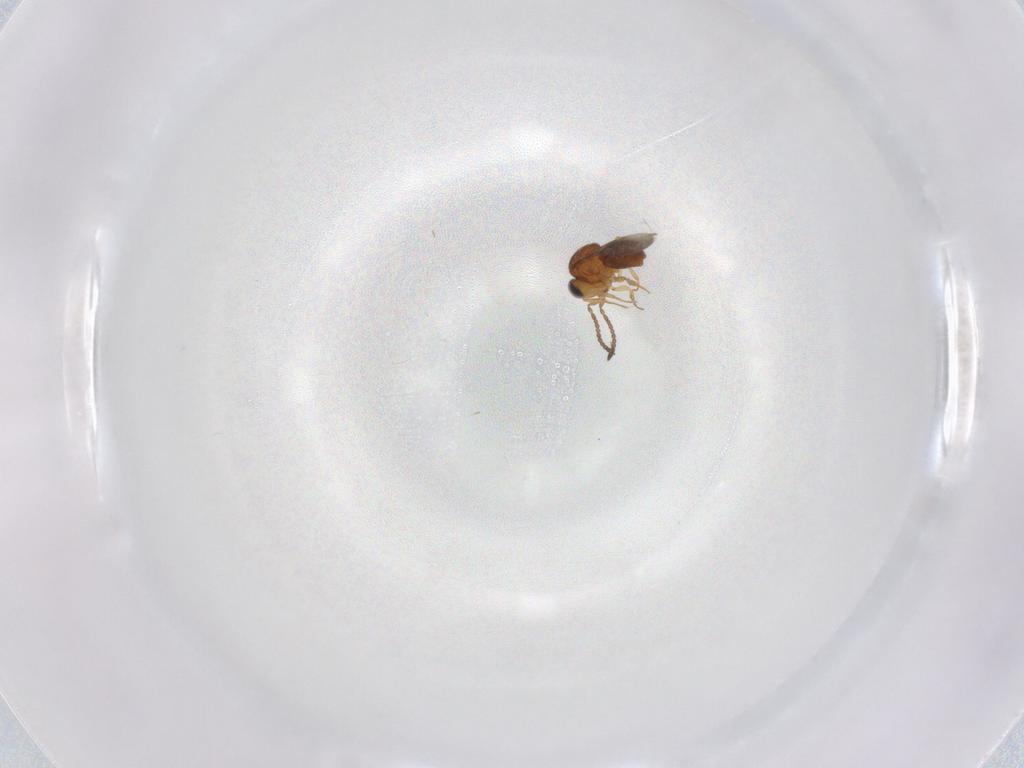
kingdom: Animalia
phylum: Arthropoda
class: Insecta
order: Hymenoptera
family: Scelionidae
